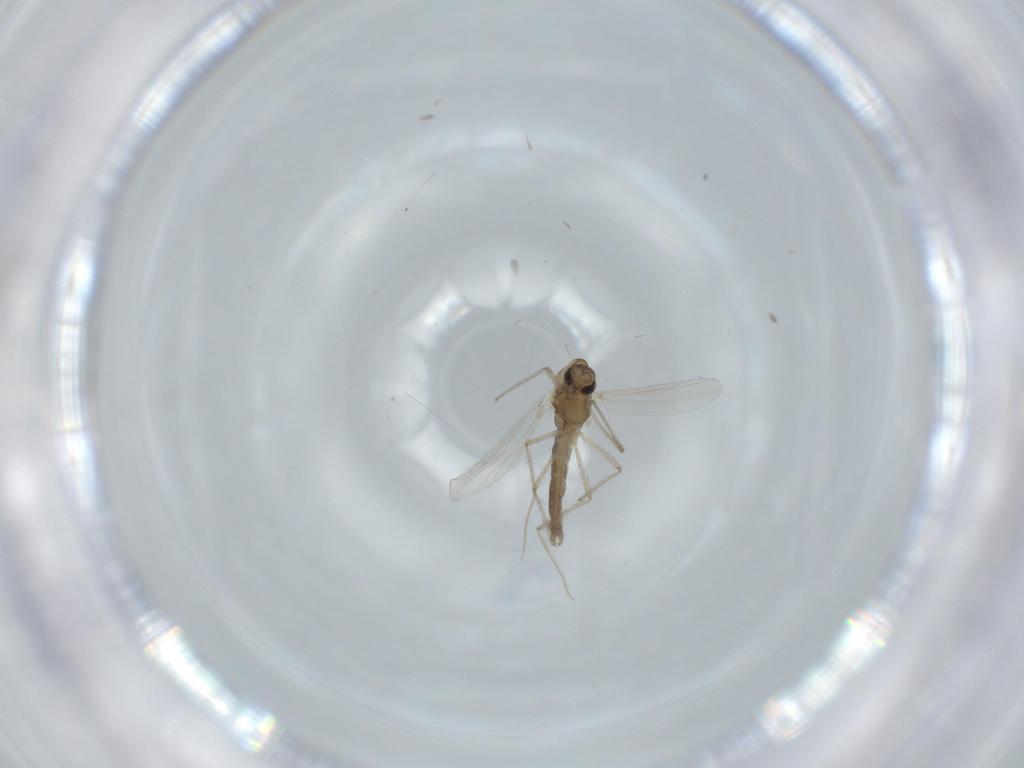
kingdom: Animalia
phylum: Arthropoda
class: Insecta
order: Diptera
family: Chironomidae
